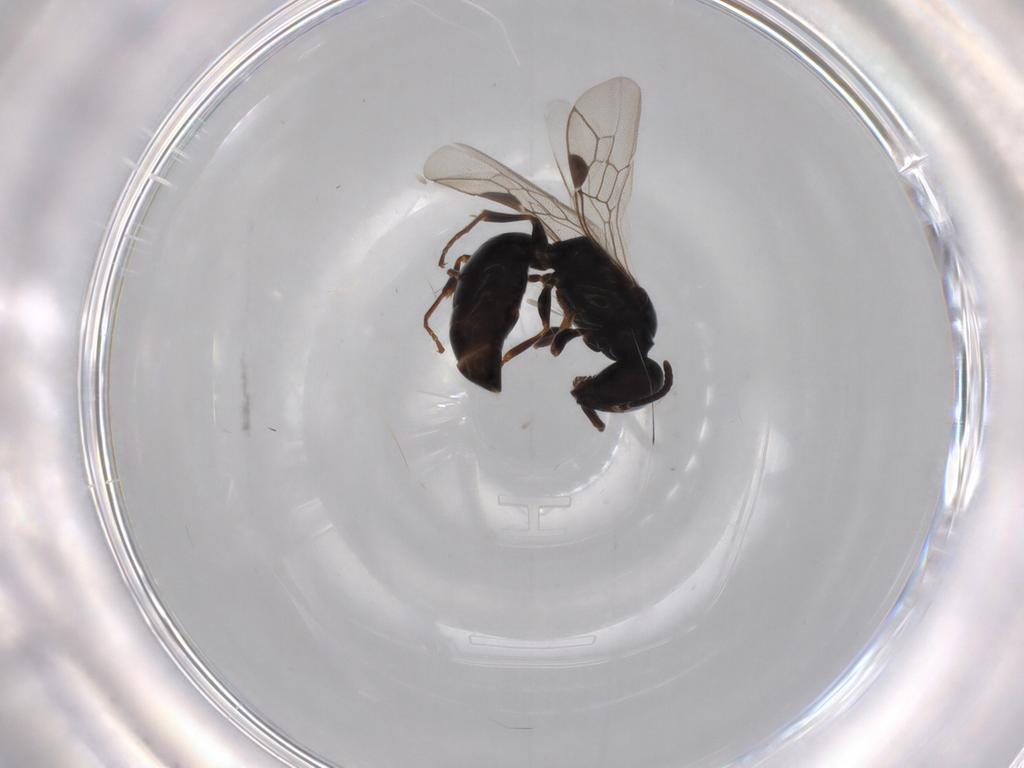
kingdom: Animalia
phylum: Arthropoda
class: Insecta
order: Hymenoptera
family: Pemphredonidae
